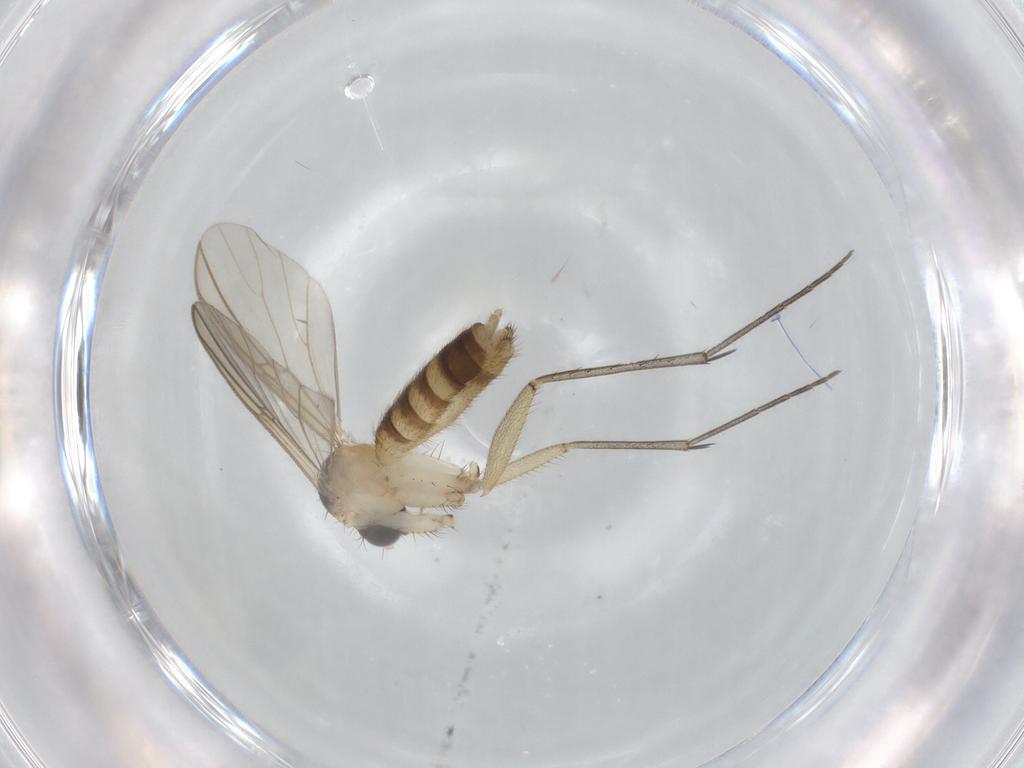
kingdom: Animalia
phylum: Arthropoda
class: Insecta
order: Diptera
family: Mycetophilidae
